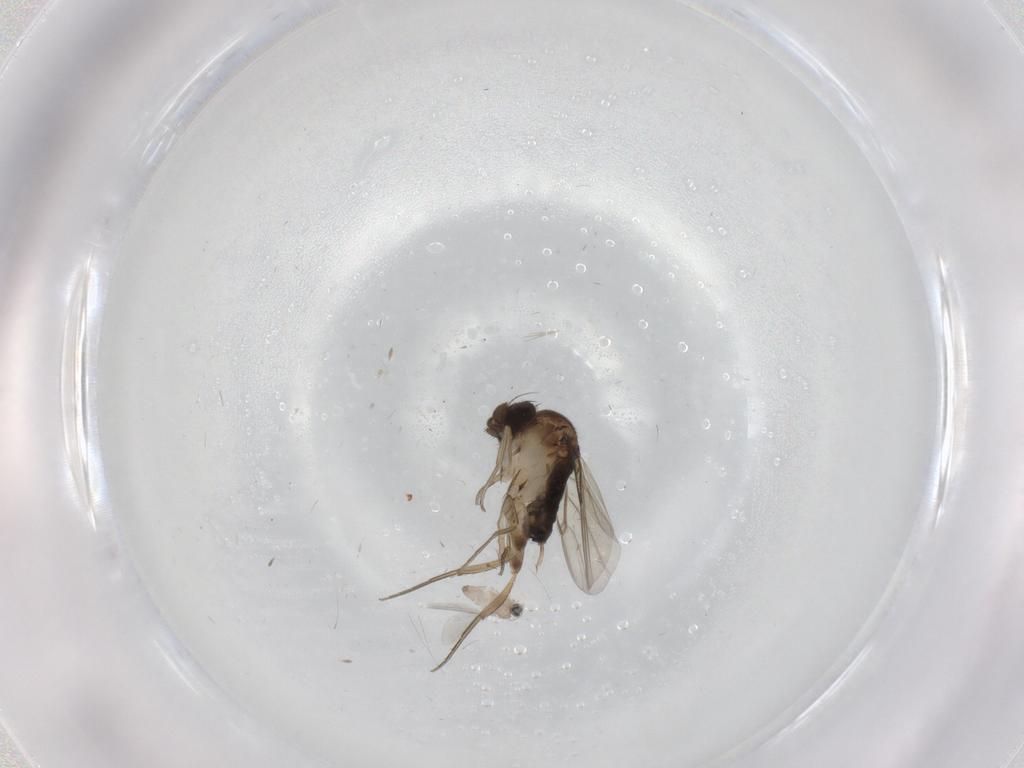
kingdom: Animalia
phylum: Arthropoda
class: Insecta
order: Diptera
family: Cecidomyiidae
